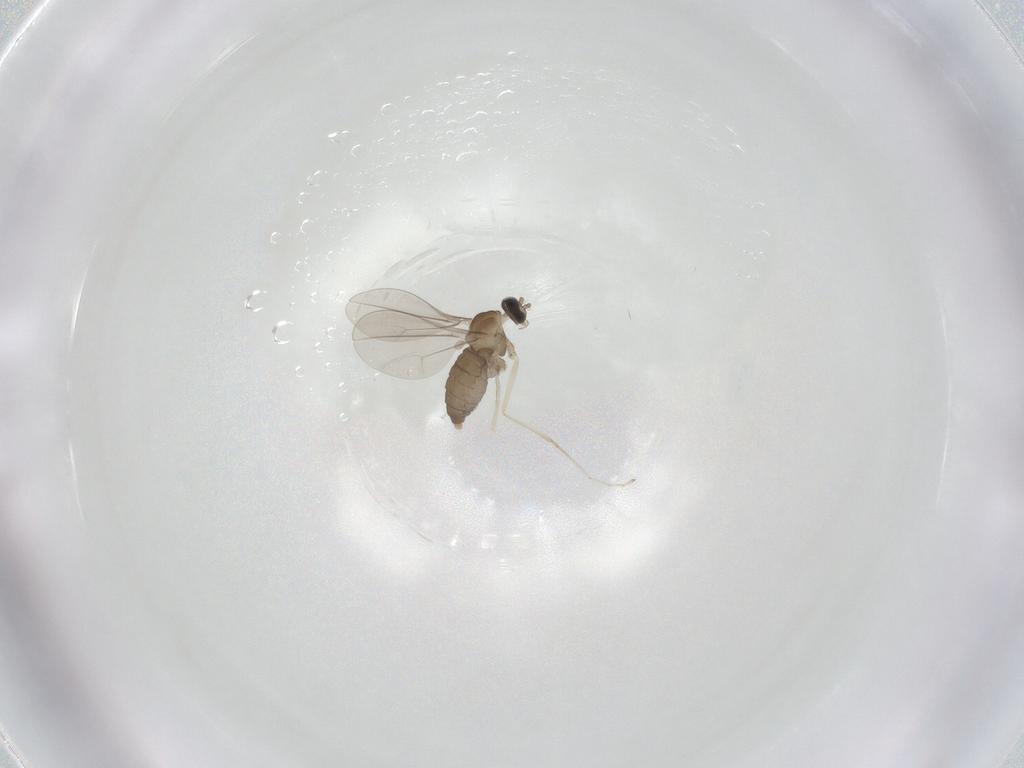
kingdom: Animalia
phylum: Arthropoda
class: Insecta
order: Diptera
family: Cecidomyiidae
